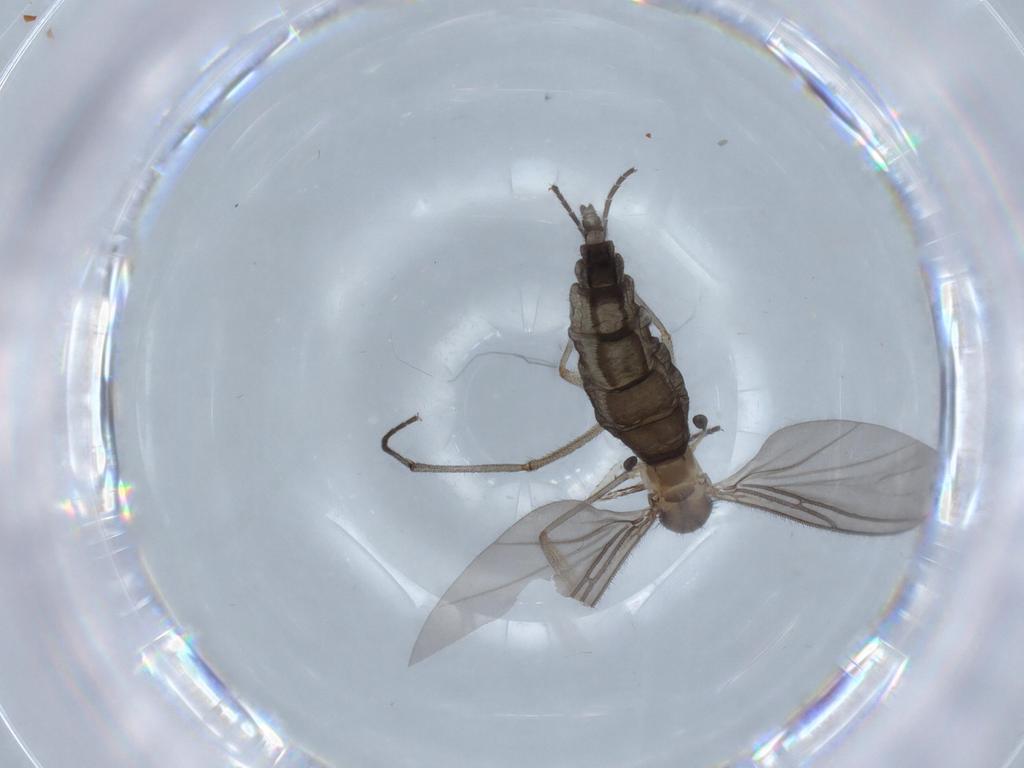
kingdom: Animalia
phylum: Arthropoda
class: Insecta
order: Diptera
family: Psychodidae
